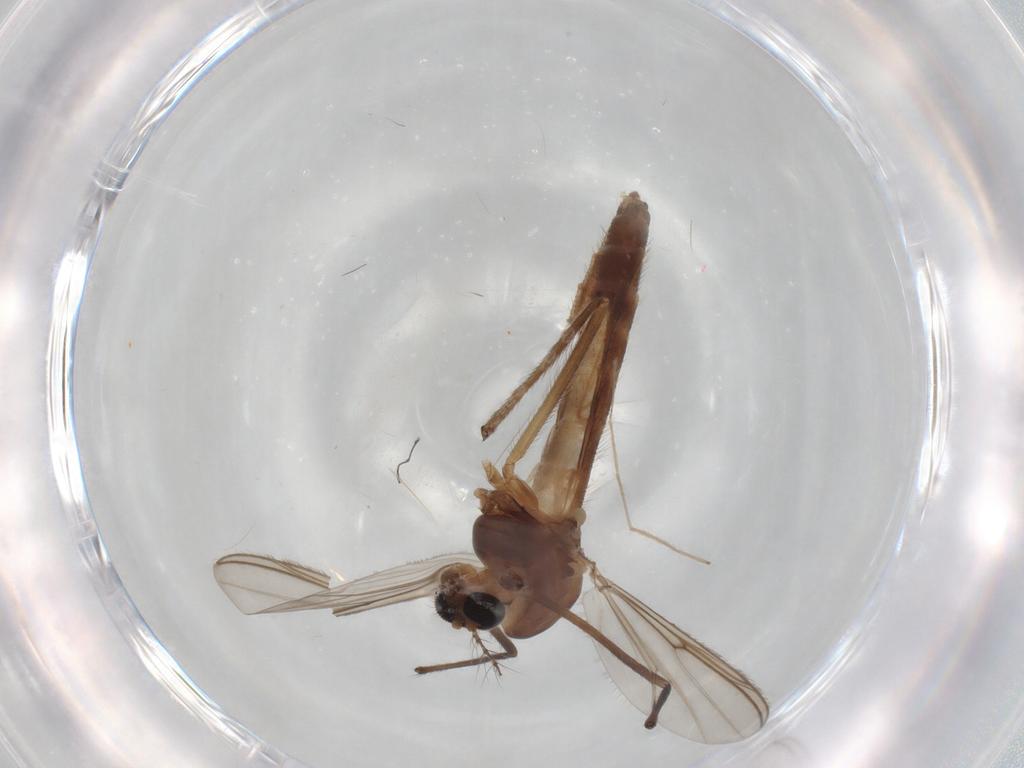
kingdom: Animalia
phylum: Arthropoda
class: Insecta
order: Diptera
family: Chironomidae
